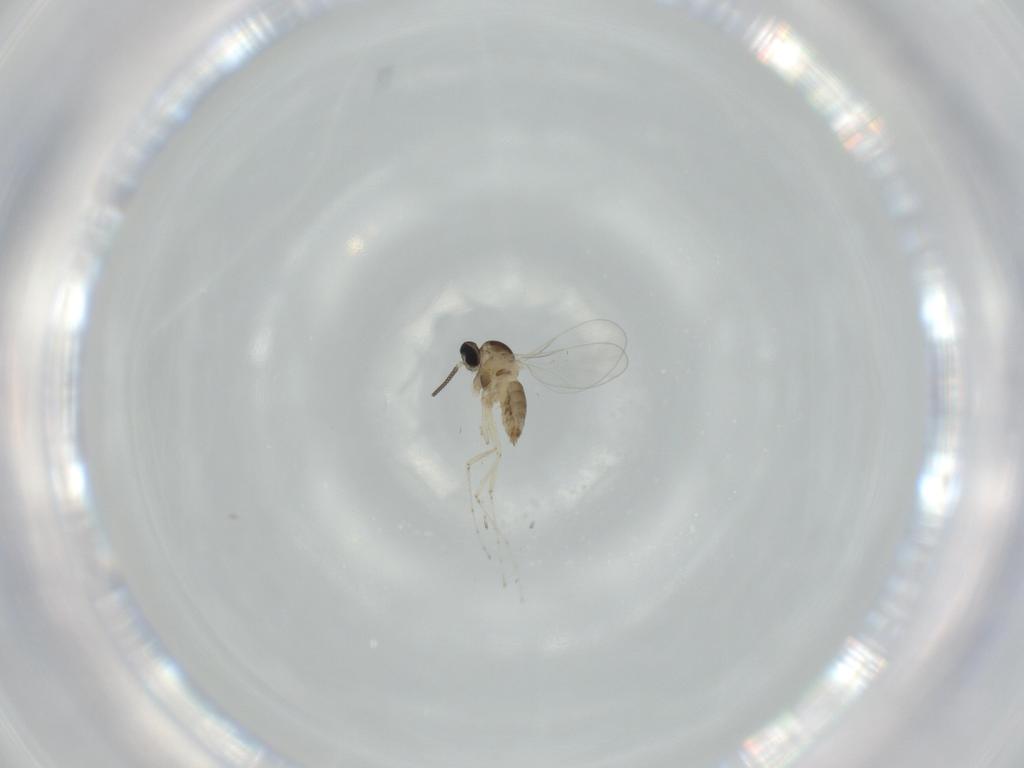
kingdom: Animalia
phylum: Arthropoda
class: Insecta
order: Diptera
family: Cecidomyiidae
